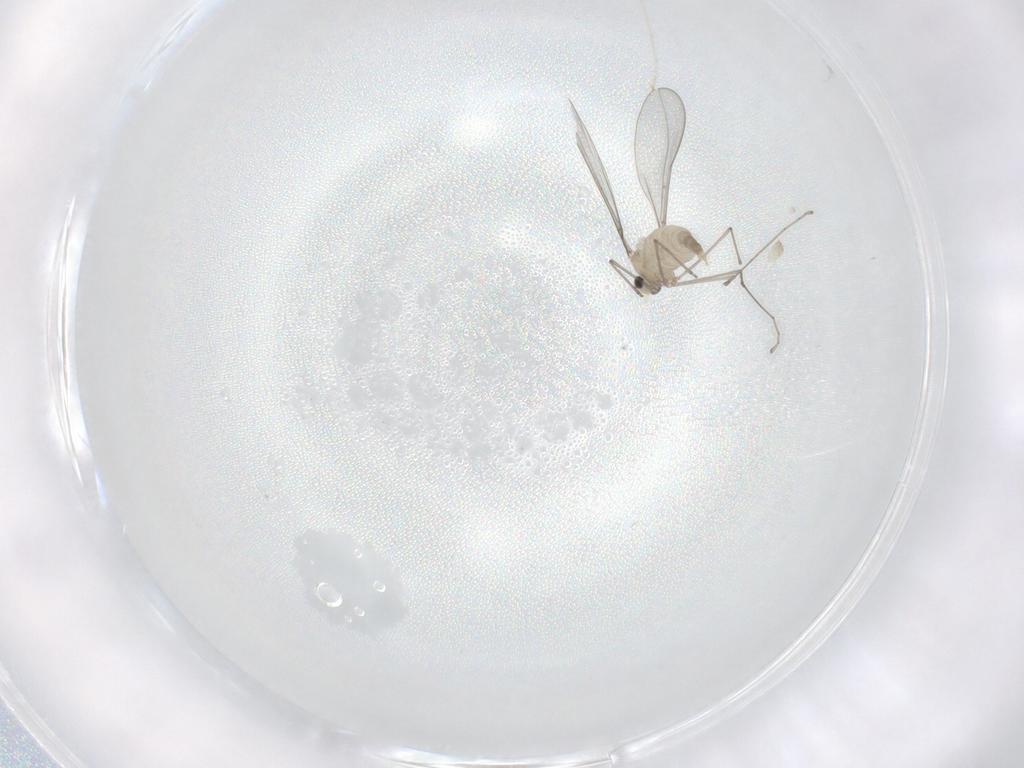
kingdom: Animalia
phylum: Arthropoda
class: Insecta
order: Diptera
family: Cecidomyiidae
